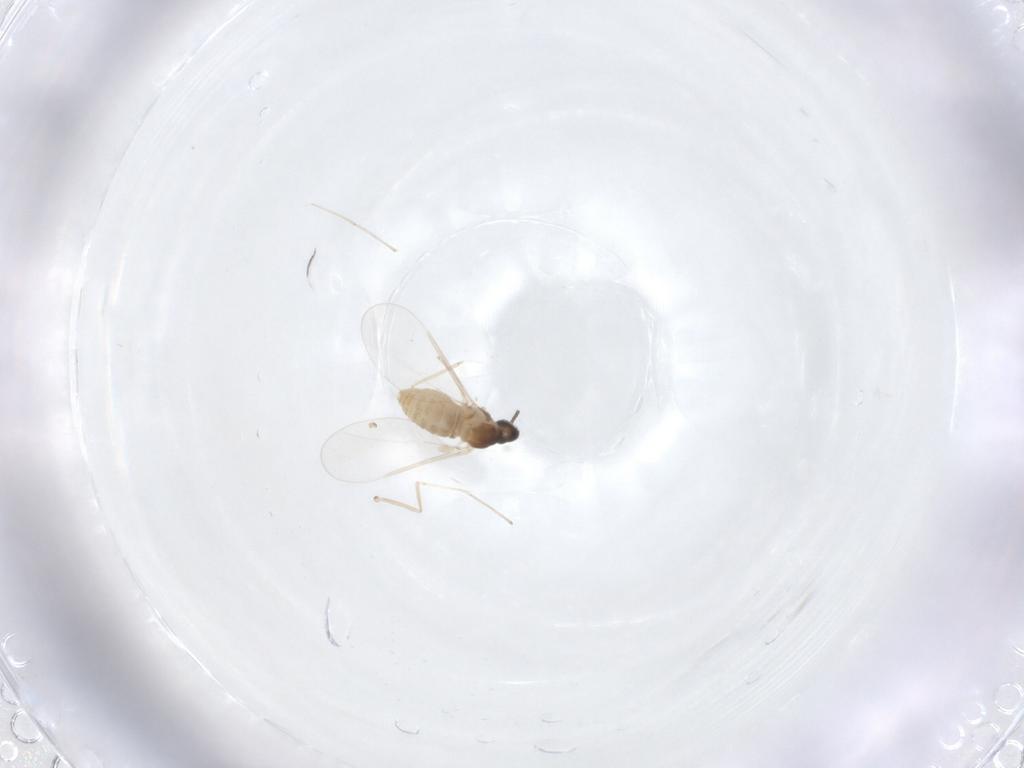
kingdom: Animalia
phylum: Arthropoda
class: Insecta
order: Diptera
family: Cecidomyiidae
